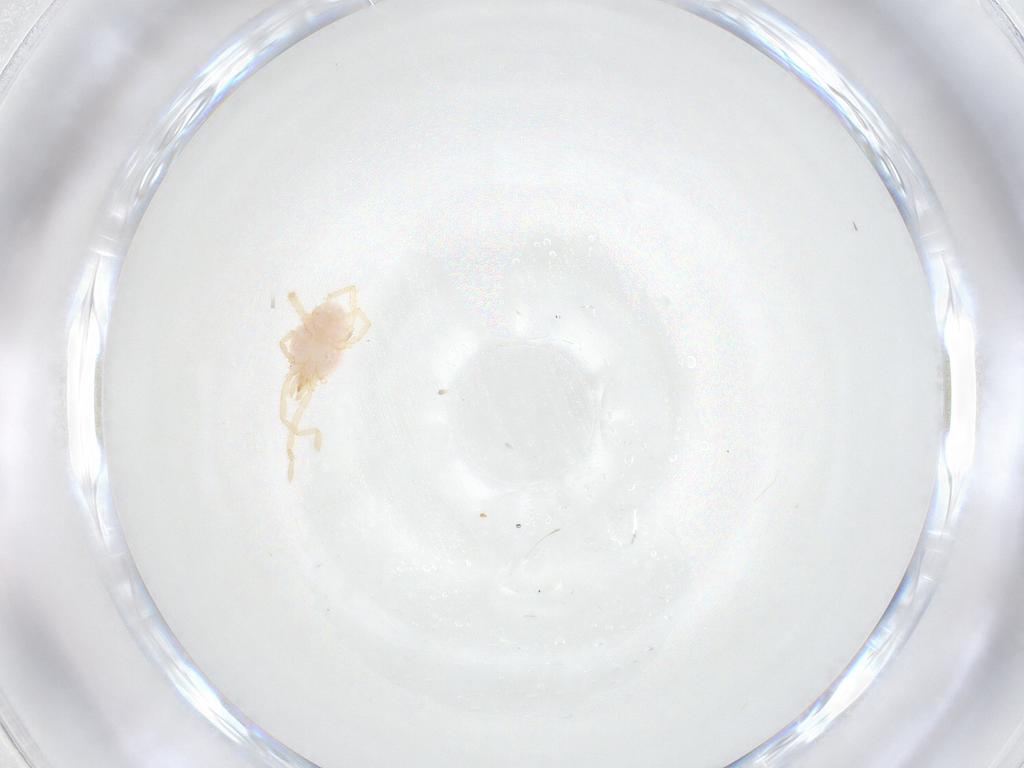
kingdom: Animalia
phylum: Arthropoda
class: Arachnida
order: Trombidiformes
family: Erythraeidae
